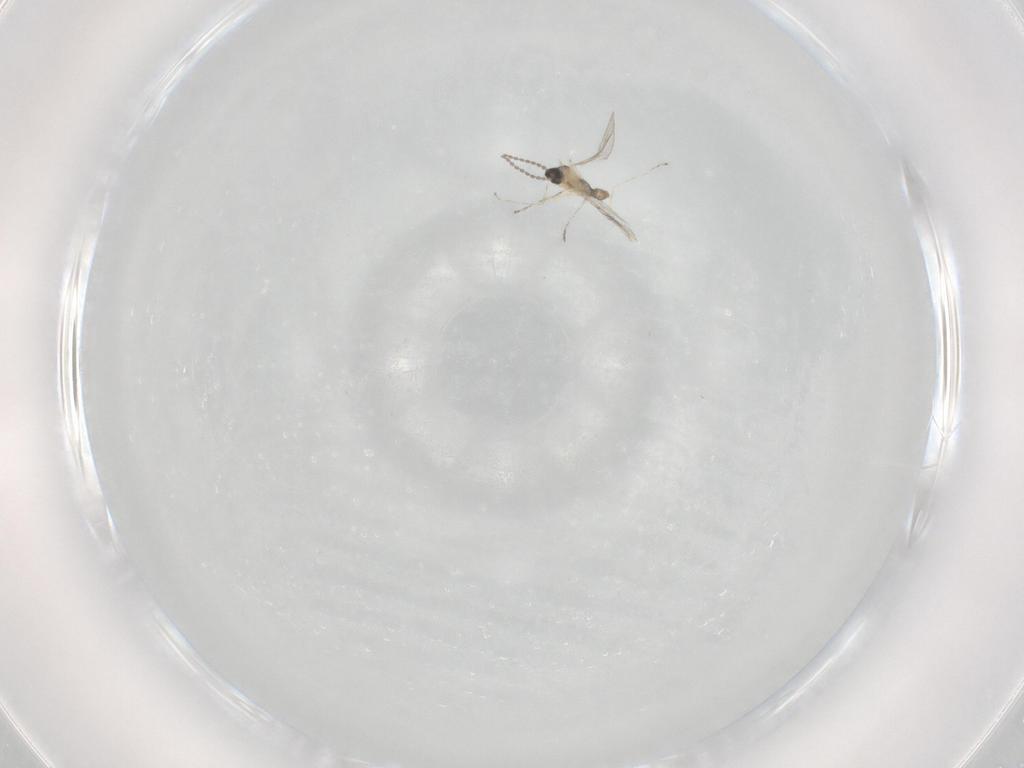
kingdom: Animalia
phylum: Arthropoda
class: Insecta
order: Diptera
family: Cecidomyiidae
